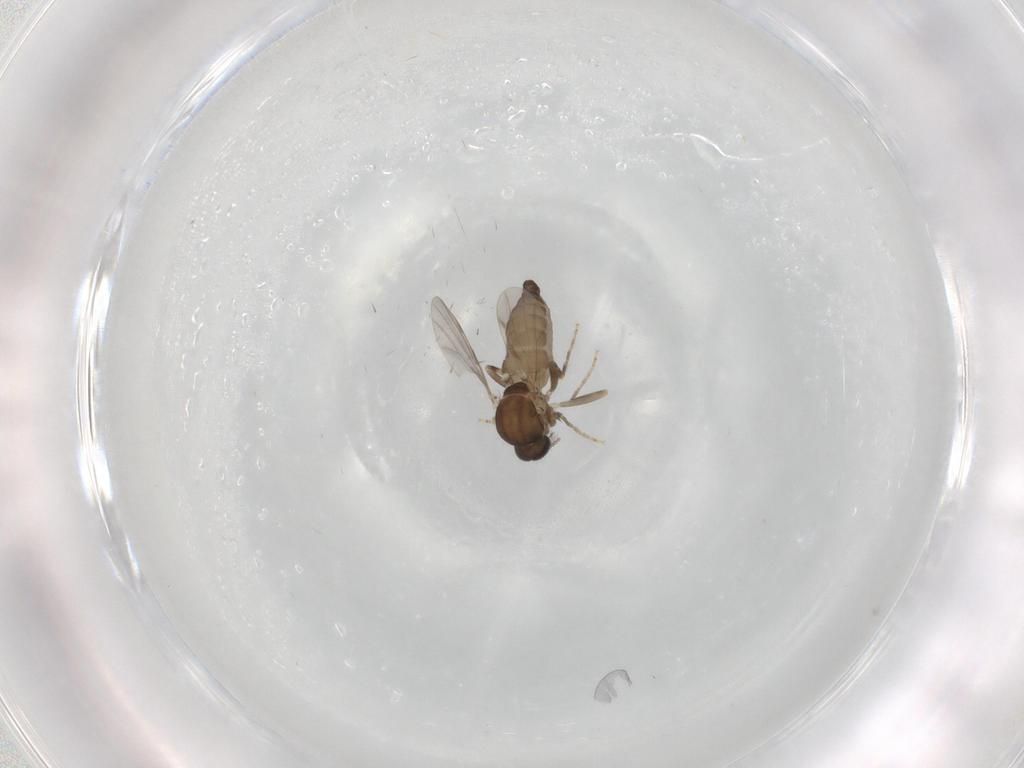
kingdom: Animalia
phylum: Arthropoda
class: Insecta
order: Diptera
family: Ceratopogonidae
